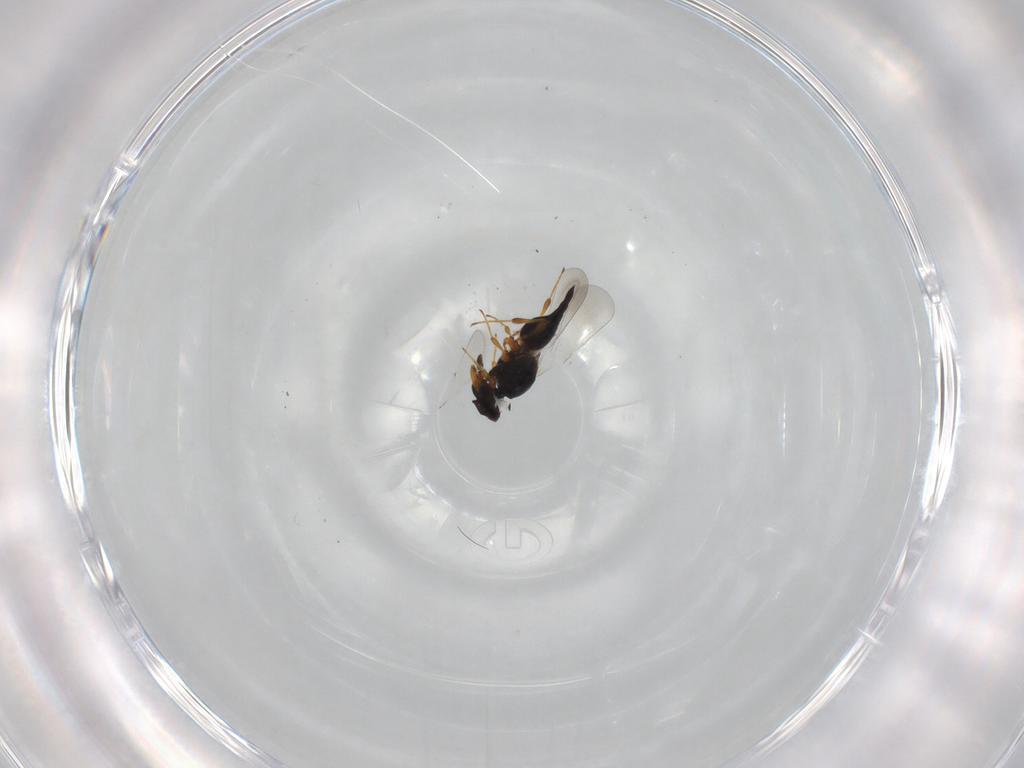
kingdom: Animalia
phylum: Arthropoda
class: Insecta
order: Hymenoptera
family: Platygastridae
